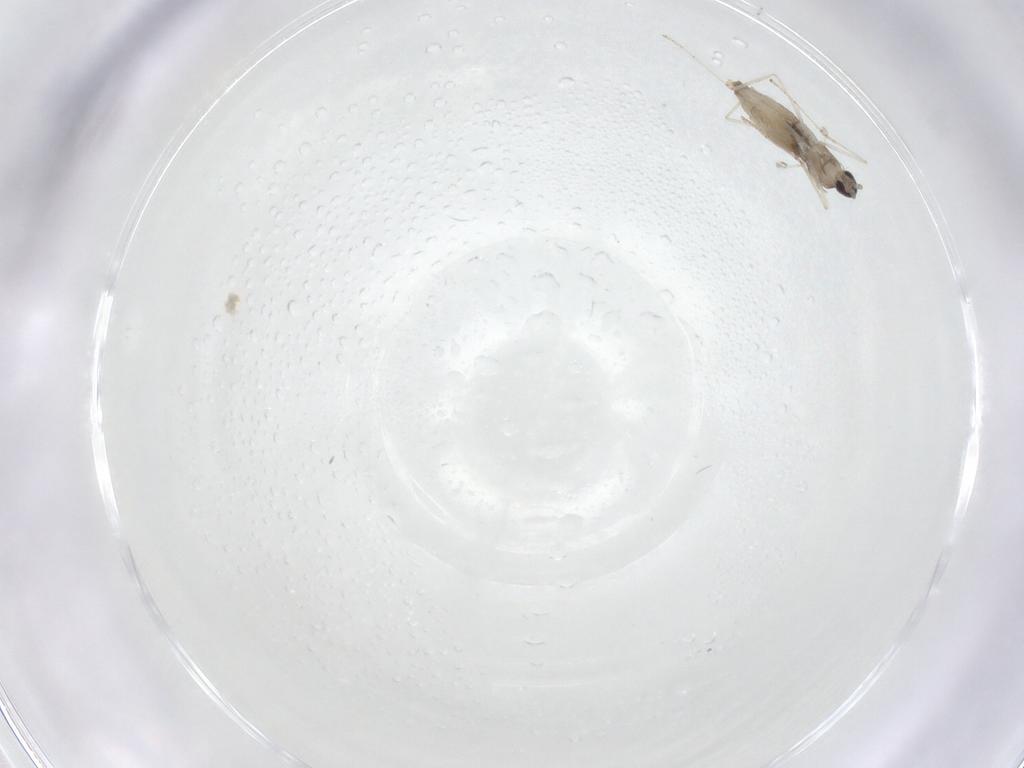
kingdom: Animalia
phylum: Arthropoda
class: Insecta
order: Diptera
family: Cecidomyiidae
